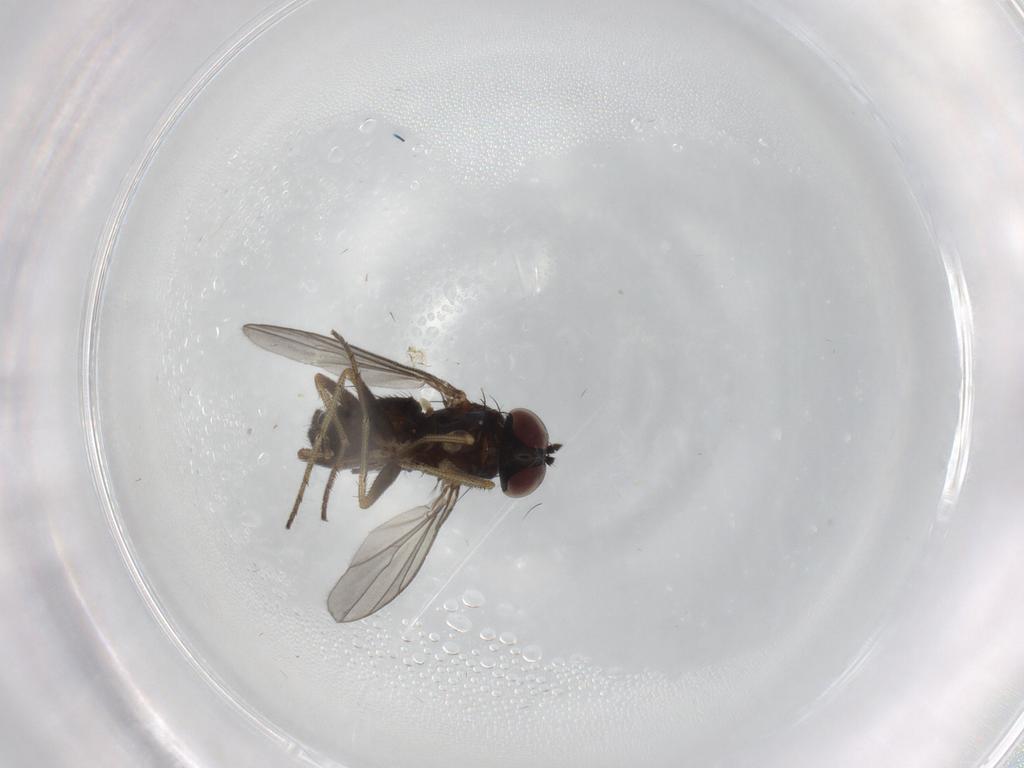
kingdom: Animalia
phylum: Arthropoda
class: Insecta
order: Diptera
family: Dolichopodidae
